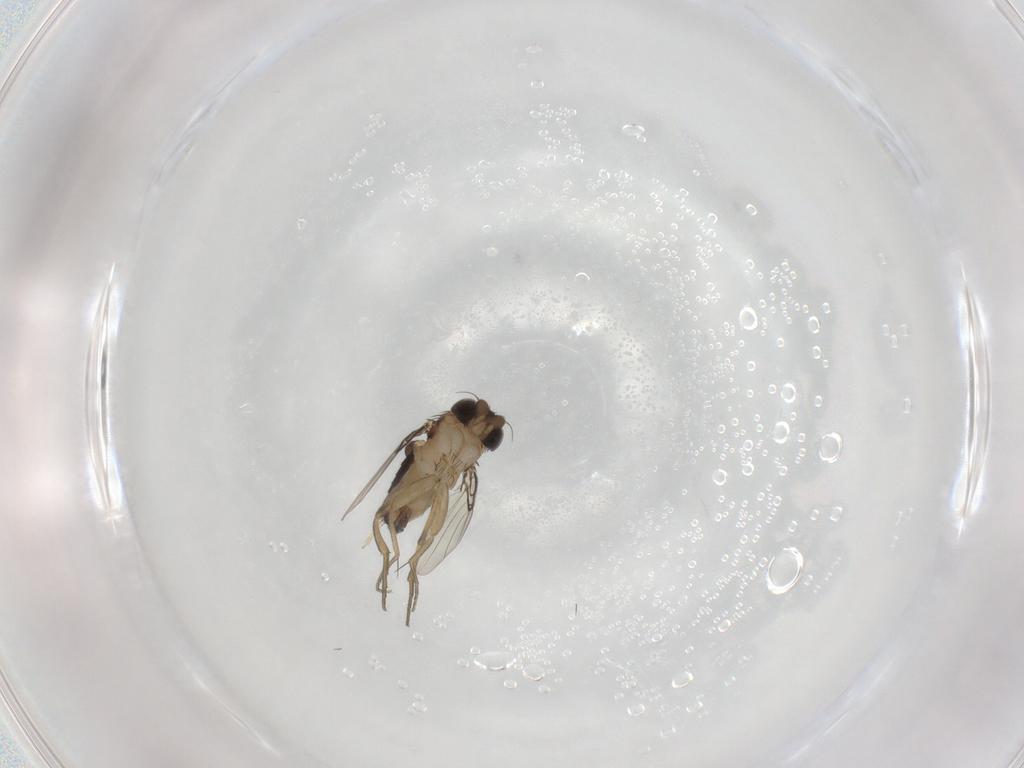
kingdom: Animalia
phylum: Arthropoda
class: Insecta
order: Diptera
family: Phoridae
